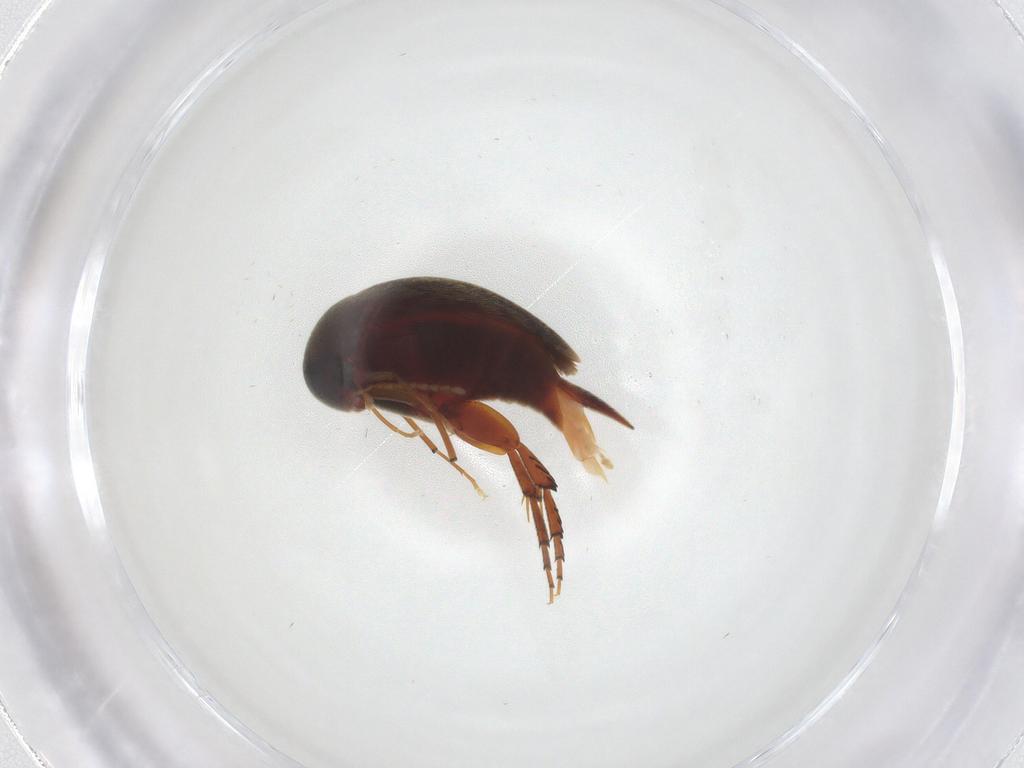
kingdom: Animalia
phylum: Arthropoda
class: Insecta
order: Coleoptera
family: Mordellidae
